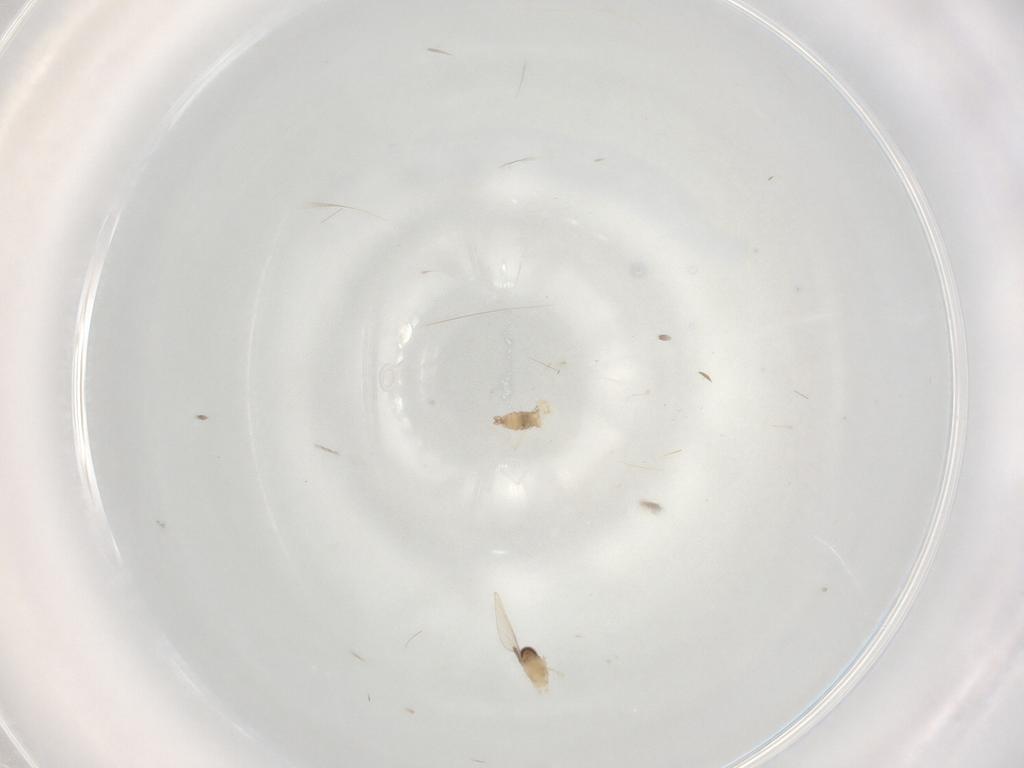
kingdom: Animalia
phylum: Arthropoda
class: Insecta
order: Diptera
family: Cecidomyiidae
